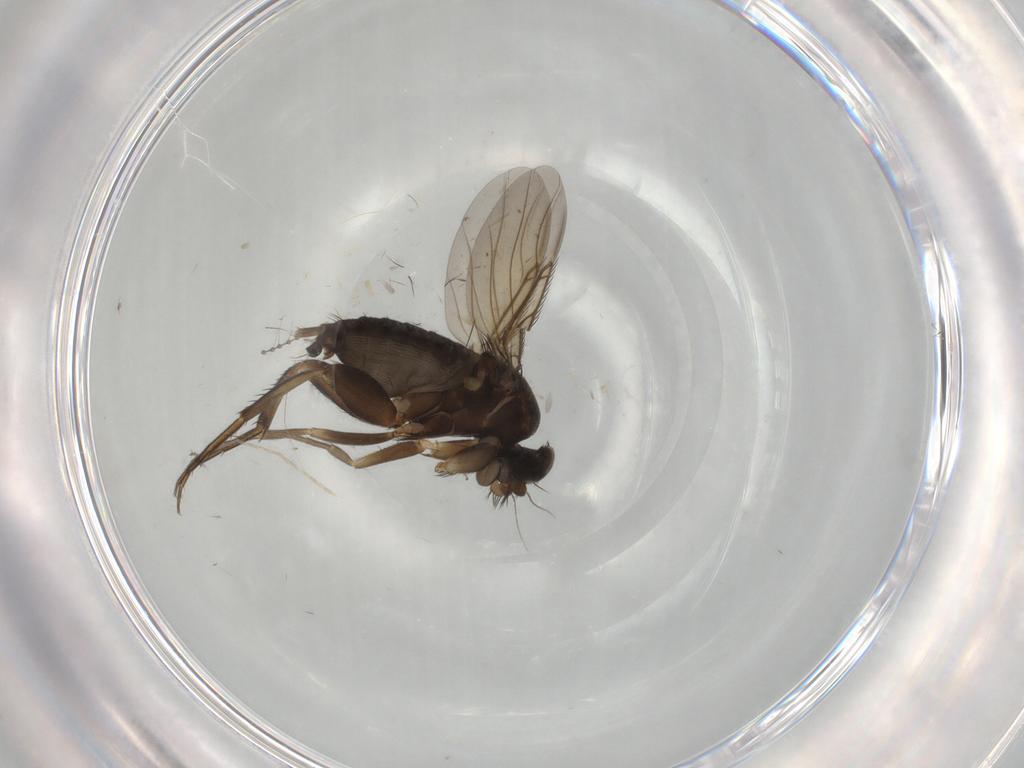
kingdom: Animalia
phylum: Arthropoda
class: Insecta
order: Diptera
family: Phoridae
